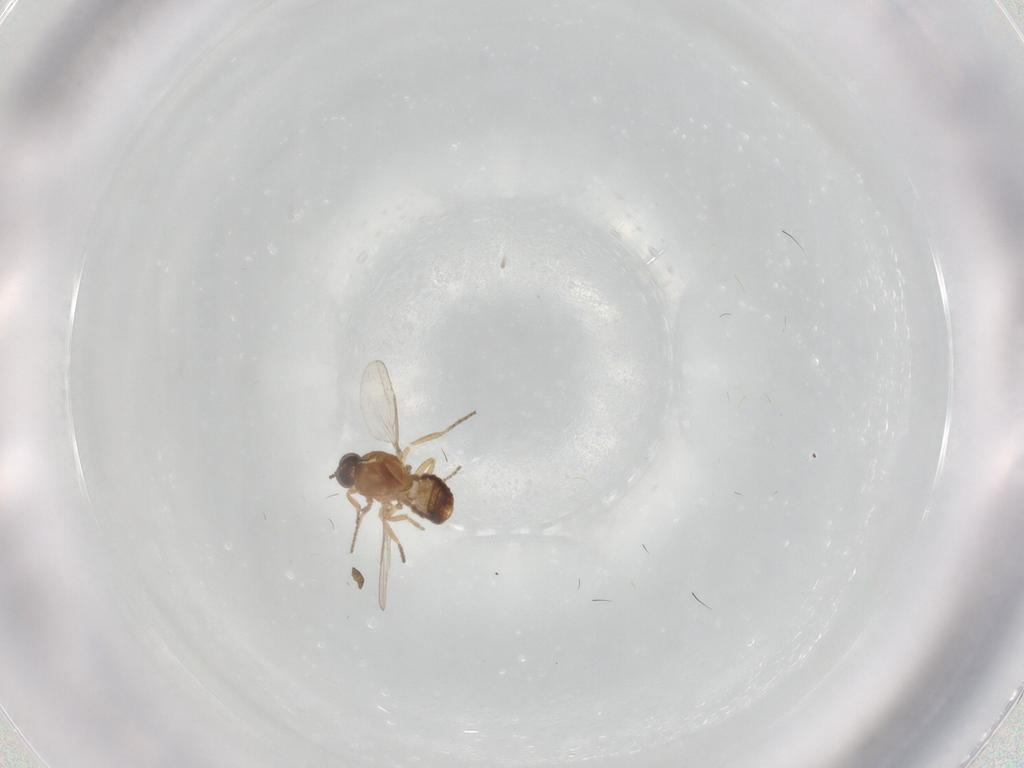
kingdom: Animalia
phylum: Arthropoda
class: Insecta
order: Diptera
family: Ceratopogonidae
